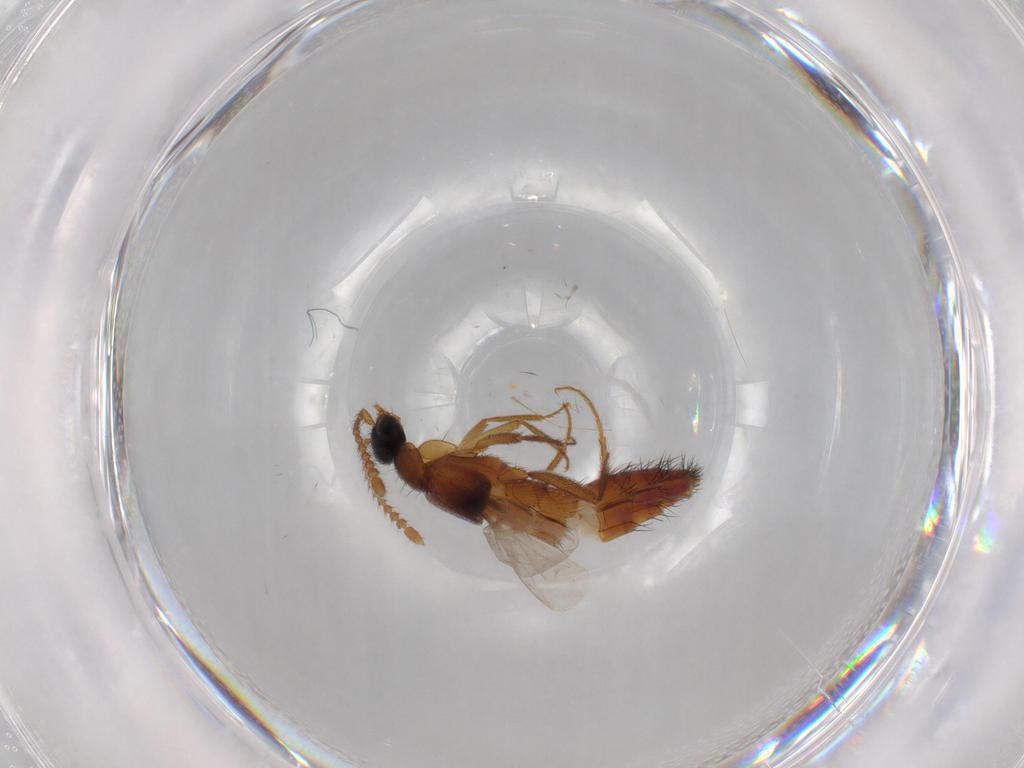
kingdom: Animalia
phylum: Arthropoda
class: Insecta
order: Coleoptera
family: Staphylinidae
